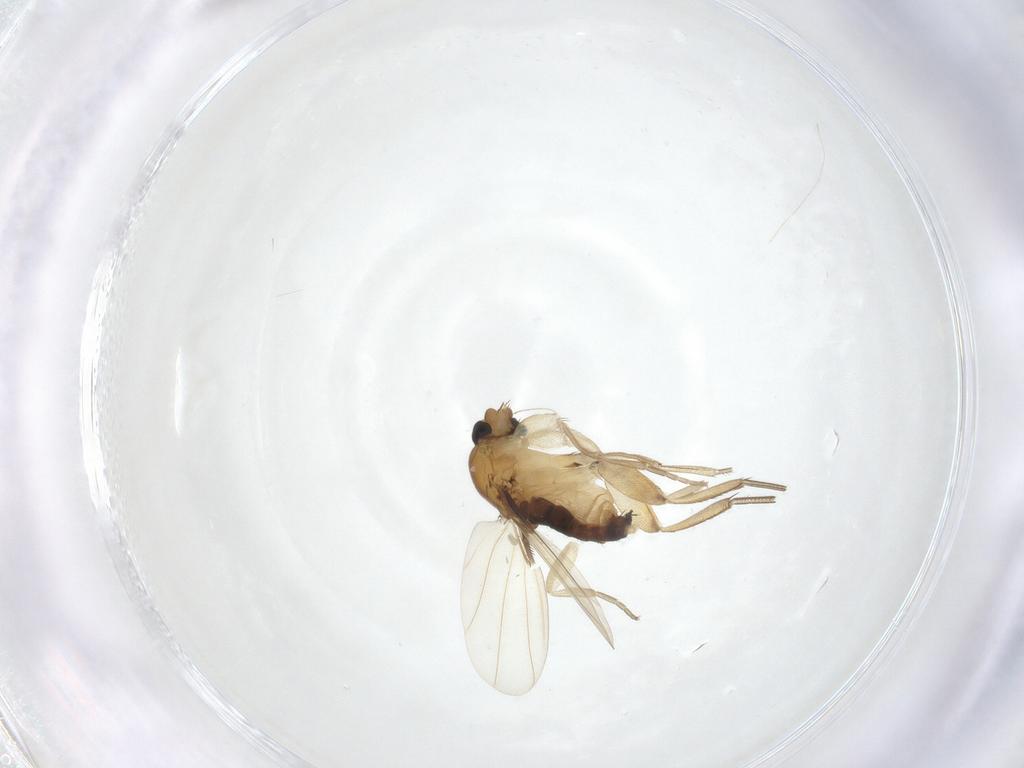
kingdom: Animalia
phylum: Arthropoda
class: Insecta
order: Diptera
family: Phoridae
